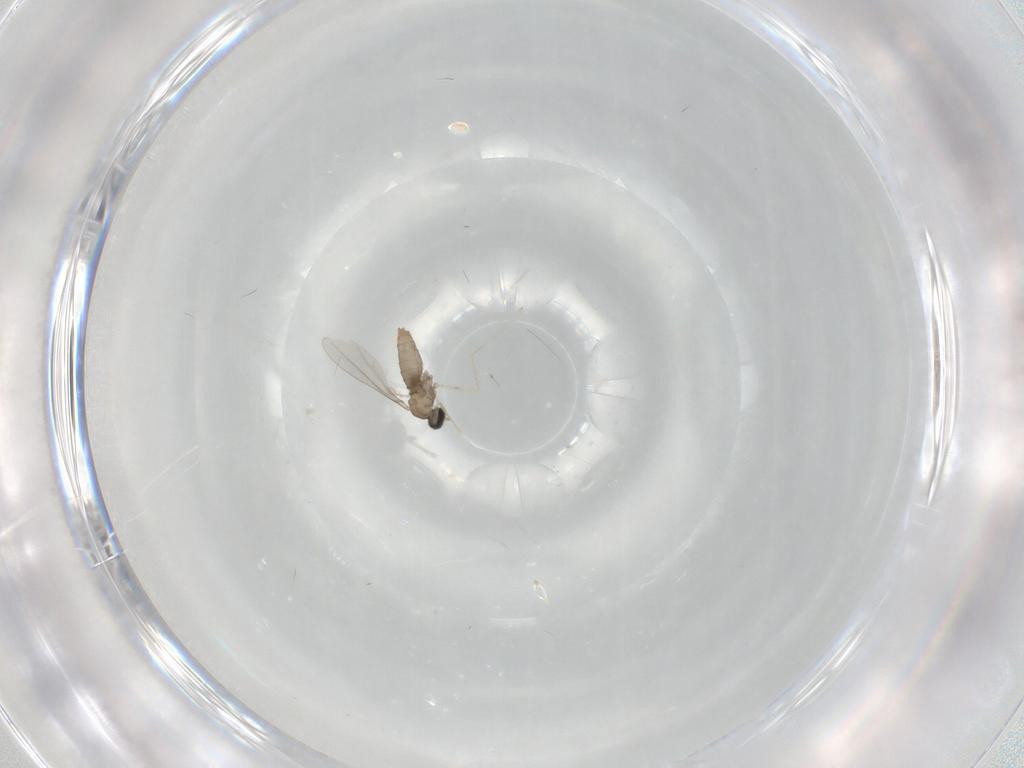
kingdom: Animalia
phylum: Arthropoda
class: Insecta
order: Diptera
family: Cecidomyiidae
